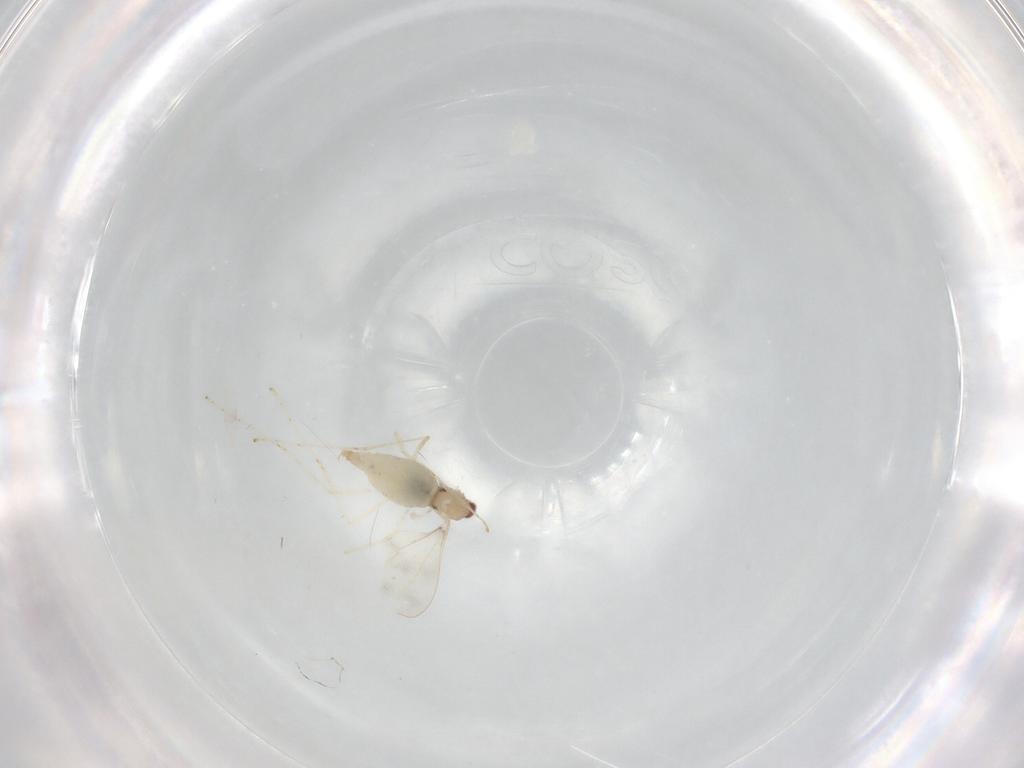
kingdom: Animalia
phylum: Arthropoda
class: Insecta
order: Diptera
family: Cecidomyiidae
